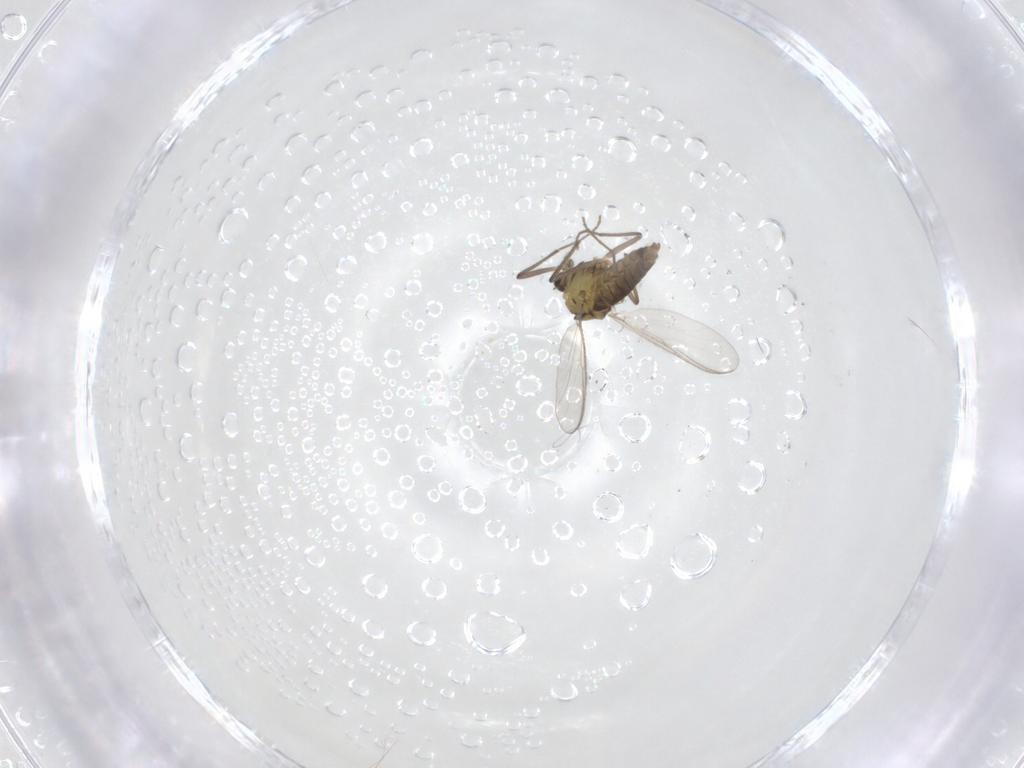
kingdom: Animalia
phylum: Arthropoda
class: Insecta
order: Diptera
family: Chironomidae
